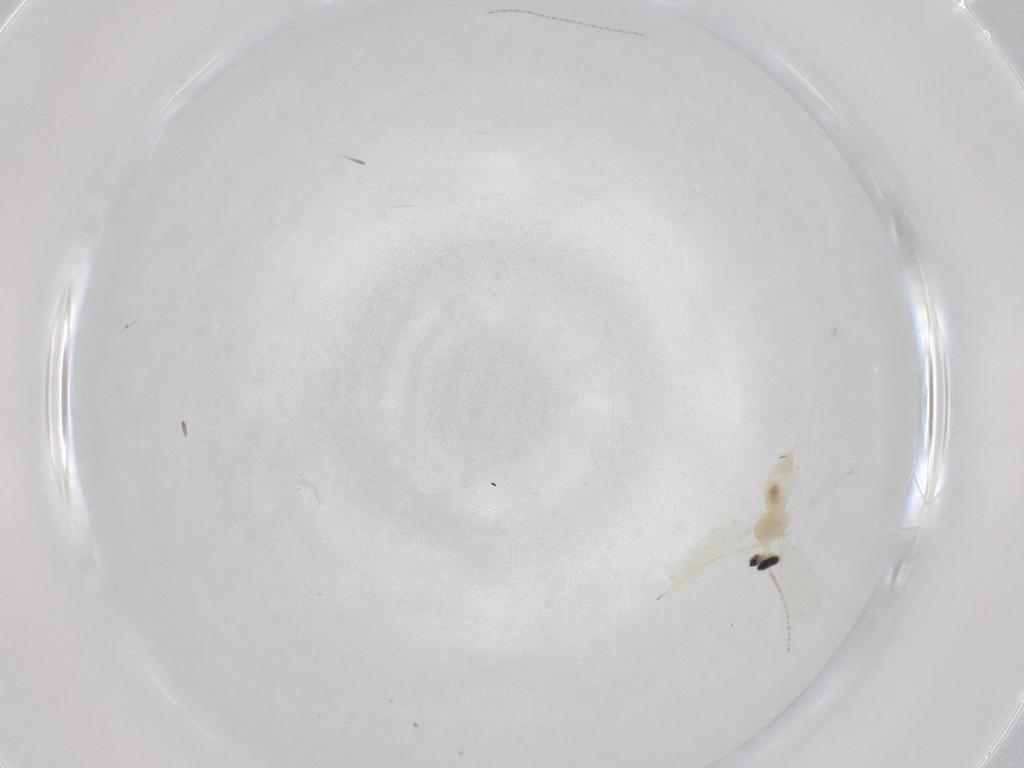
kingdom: Animalia
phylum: Arthropoda
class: Insecta
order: Diptera
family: Cecidomyiidae
